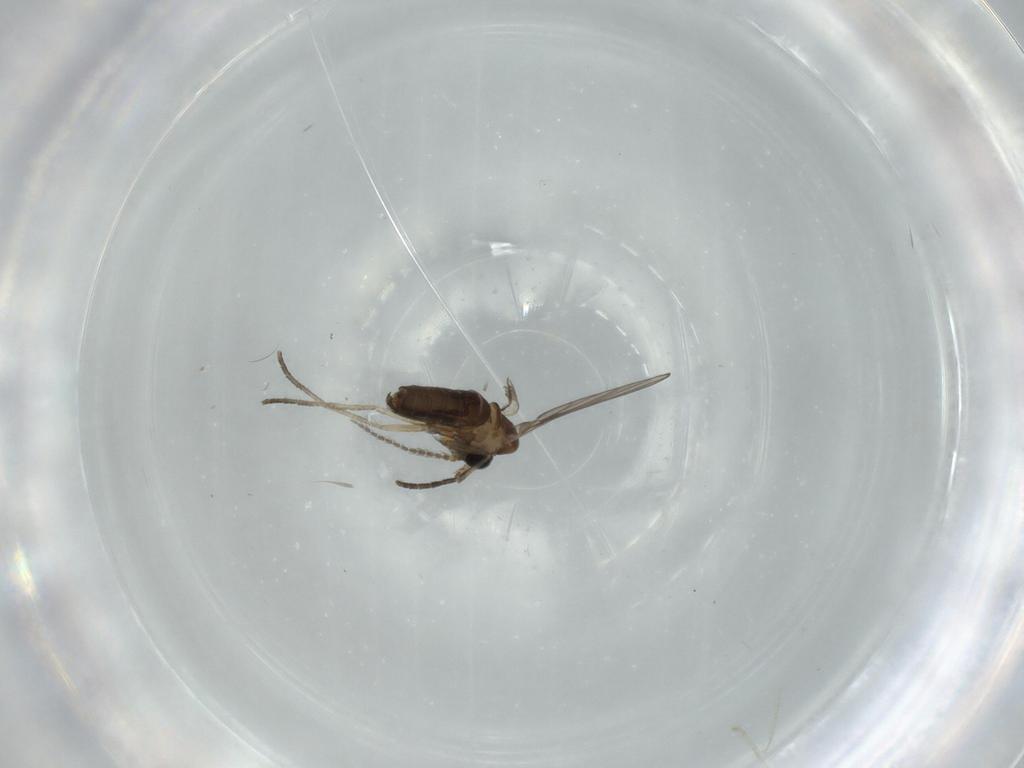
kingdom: Animalia
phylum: Arthropoda
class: Insecta
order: Diptera
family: Psychodidae
